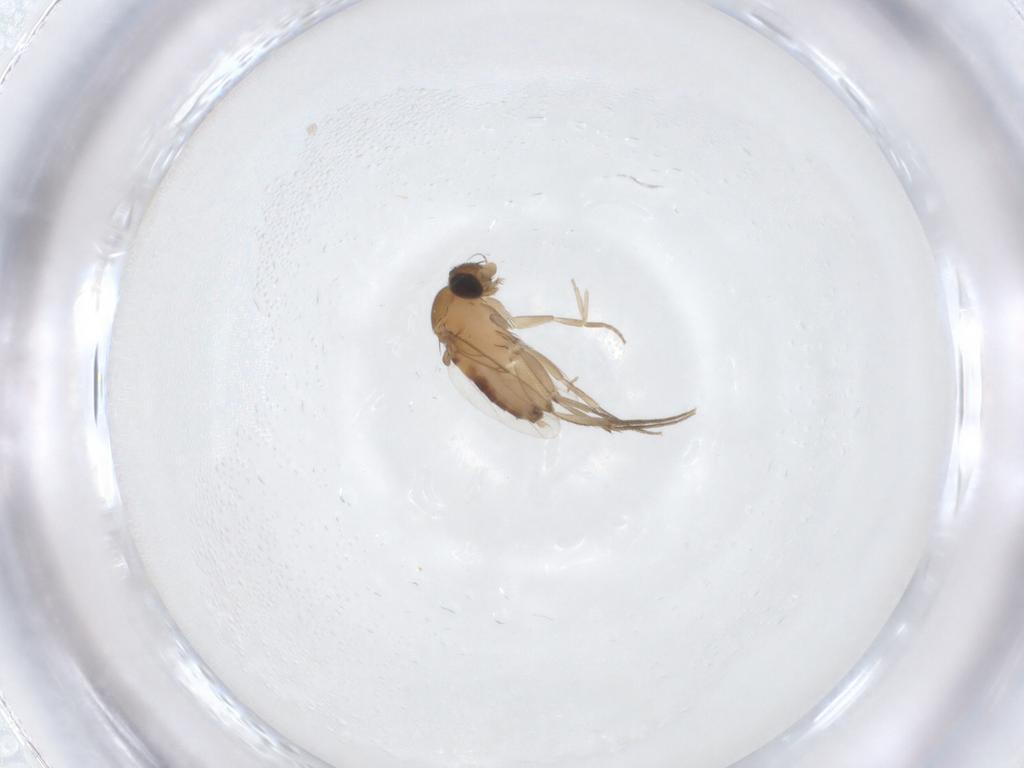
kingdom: Animalia
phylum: Arthropoda
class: Insecta
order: Diptera
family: Phoridae
